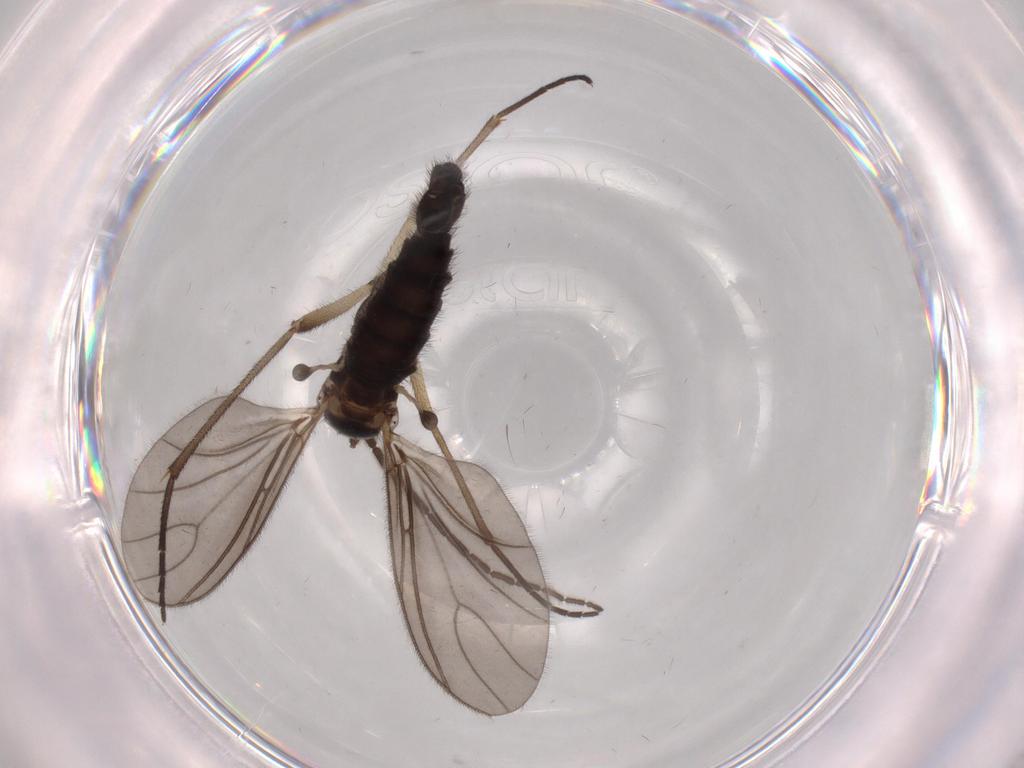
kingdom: Animalia
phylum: Arthropoda
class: Insecta
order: Diptera
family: Sciaridae
